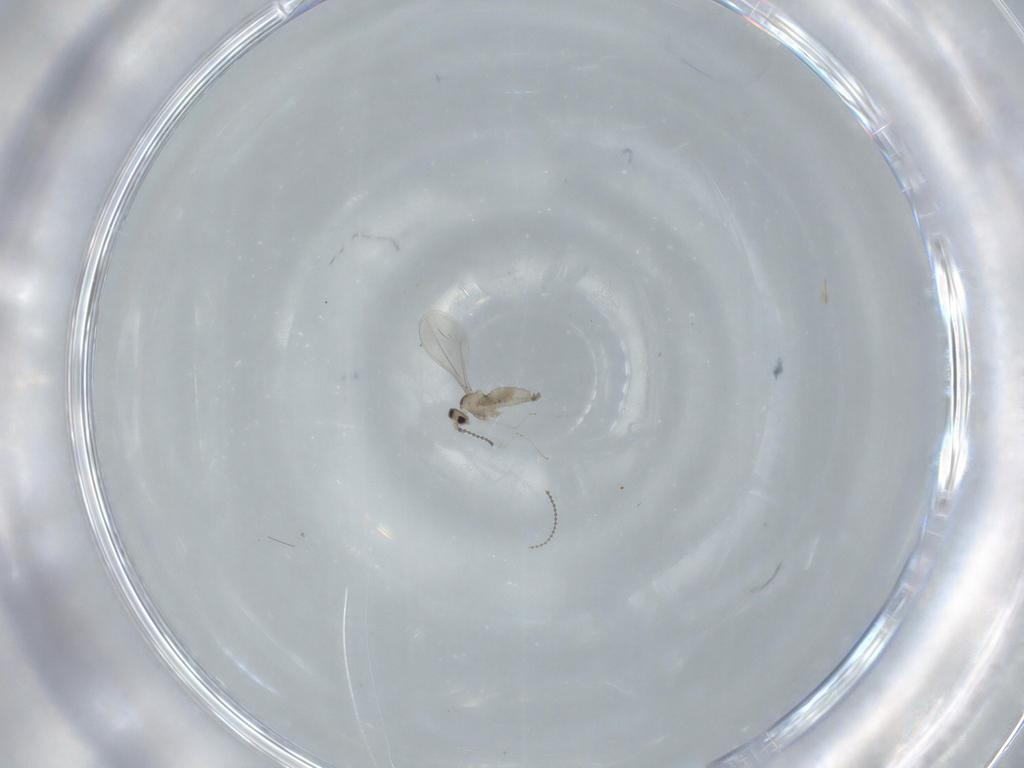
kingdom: Animalia
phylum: Arthropoda
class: Insecta
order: Diptera
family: Cecidomyiidae
